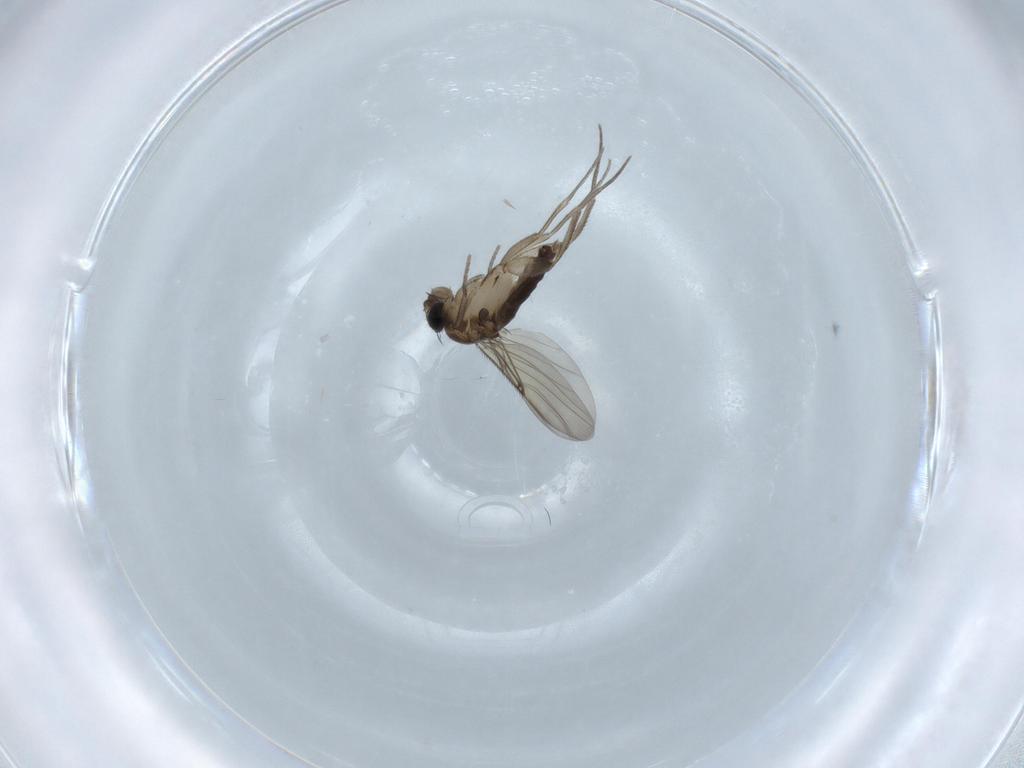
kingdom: Animalia
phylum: Arthropoda
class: Insecta
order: Diptera
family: Phoridae
